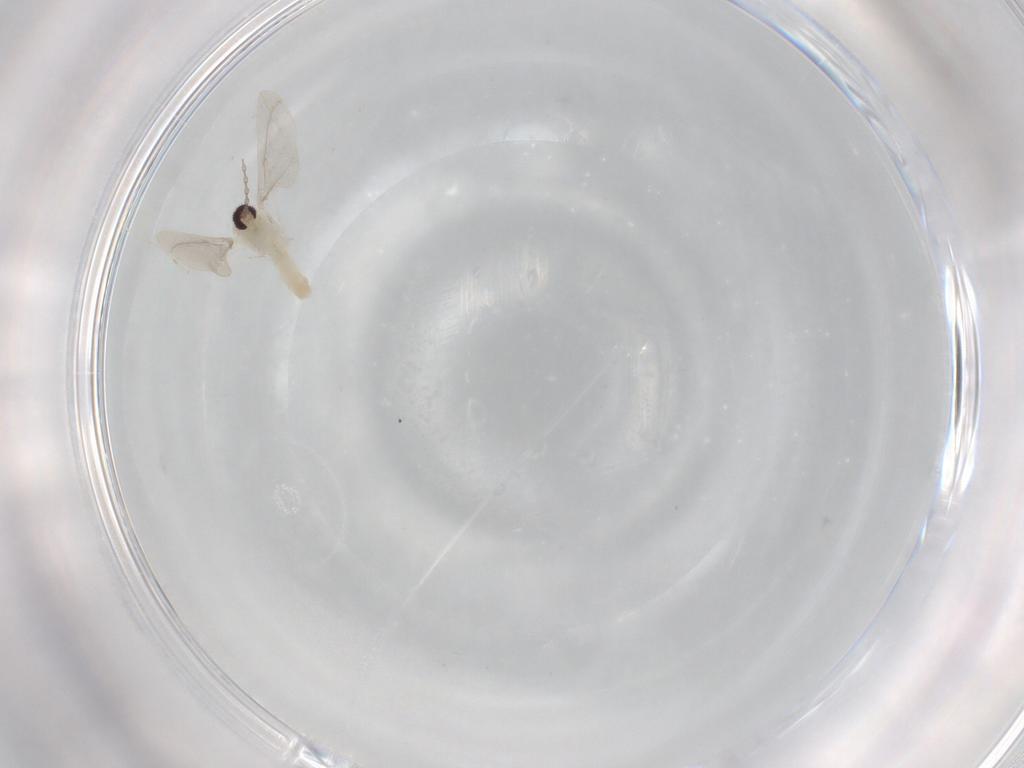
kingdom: Animalia
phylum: Arthropoda
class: Insecta
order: Diptera
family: Cecidomyiidae
